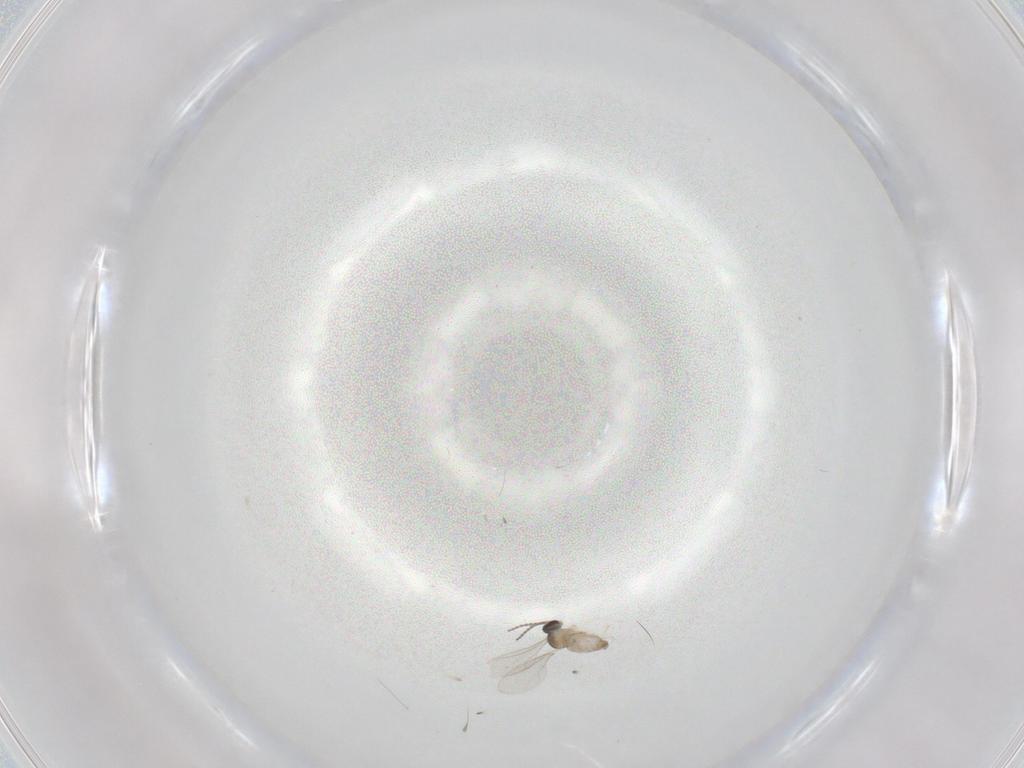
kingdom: Animalia
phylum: Arthropoda
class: Insecta
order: Diptera
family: Cecidomyiidae
